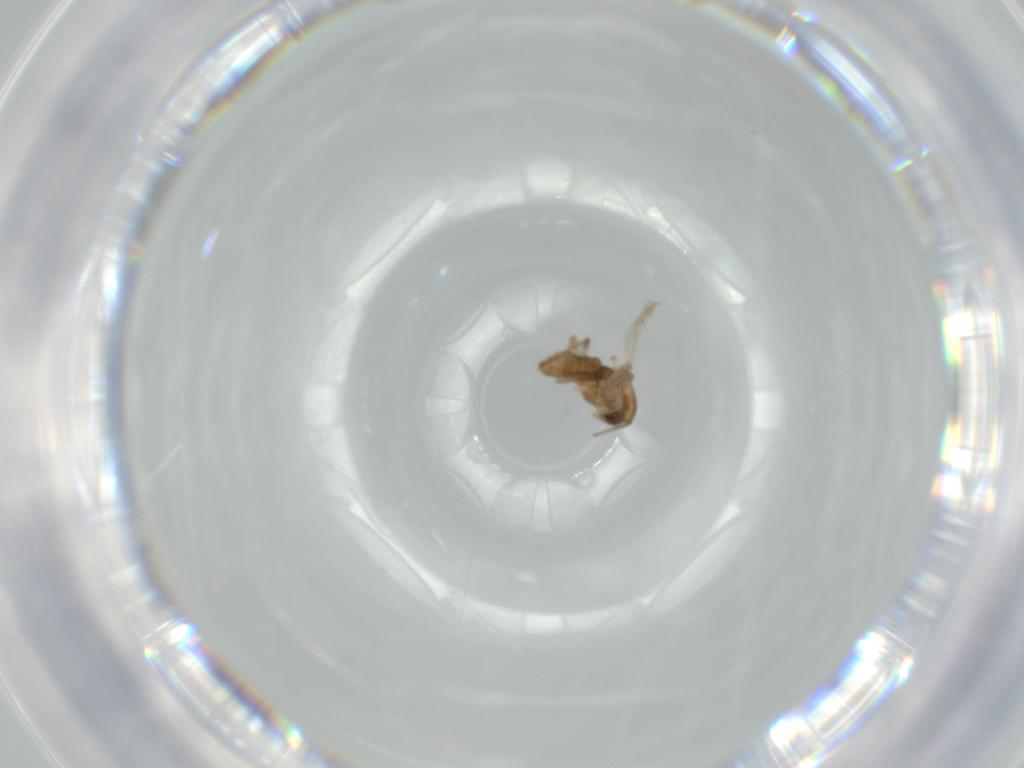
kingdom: Animalia
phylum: Arthropoda
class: Insecta
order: Diptera
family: Chironomidae
